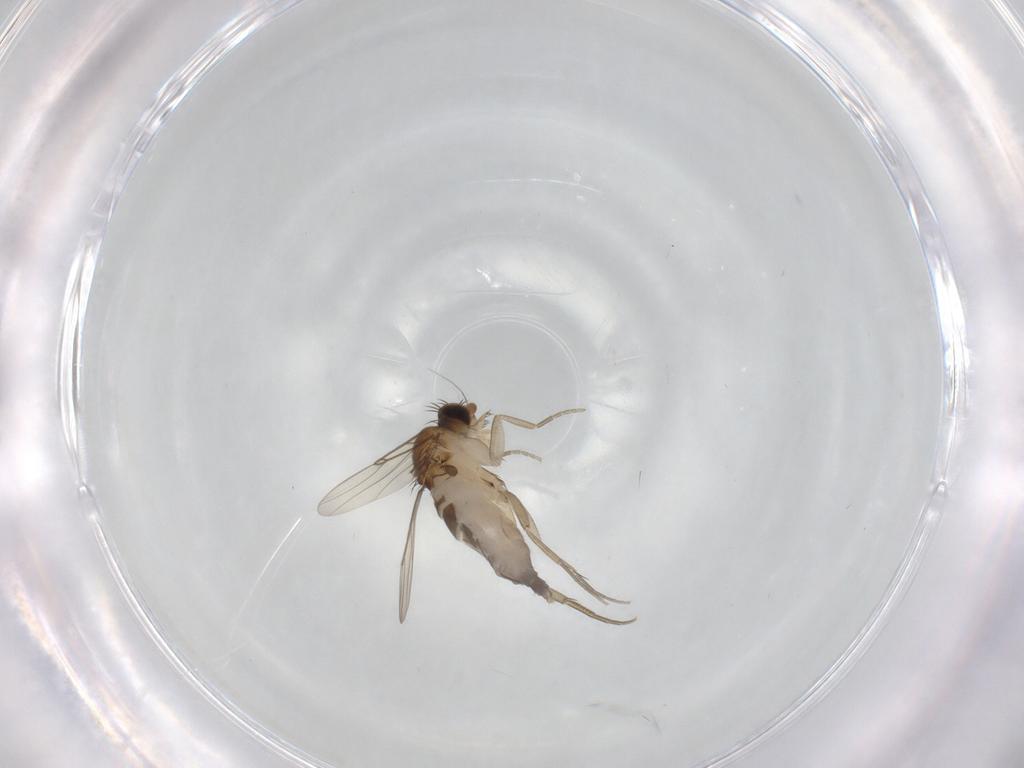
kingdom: Animalia
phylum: Arthropoda
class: Insecta
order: Diptera
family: Phoridae
